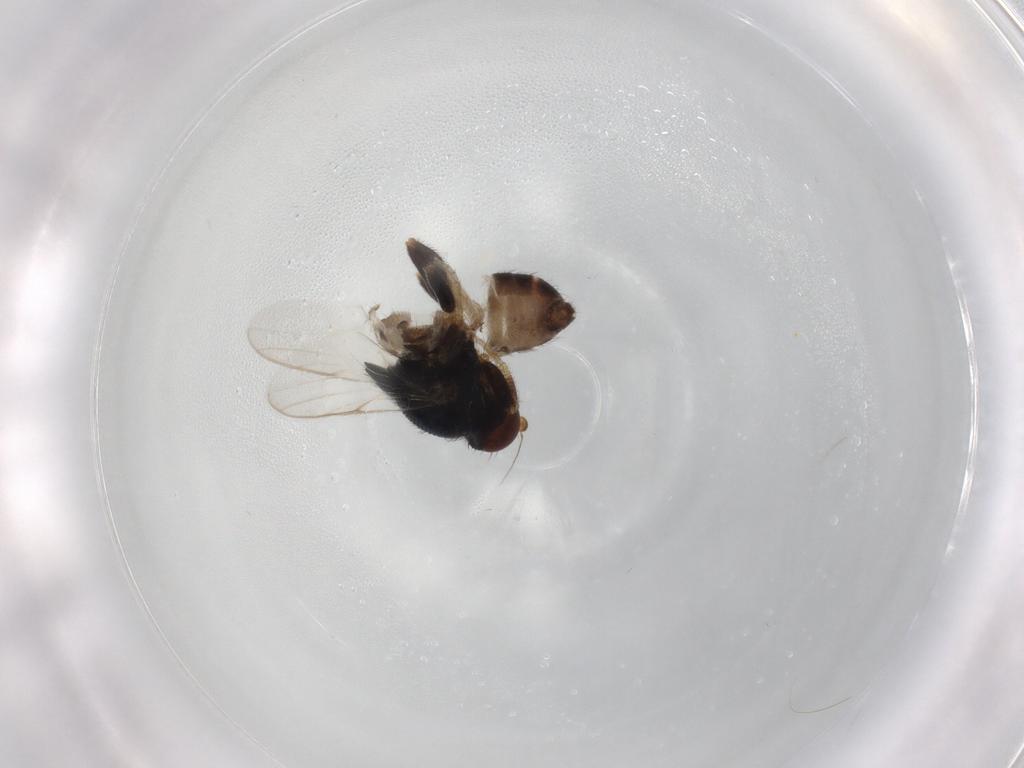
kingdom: Animalia
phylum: Arthropoda
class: Insecta
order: Diptera
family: Chloropidae
